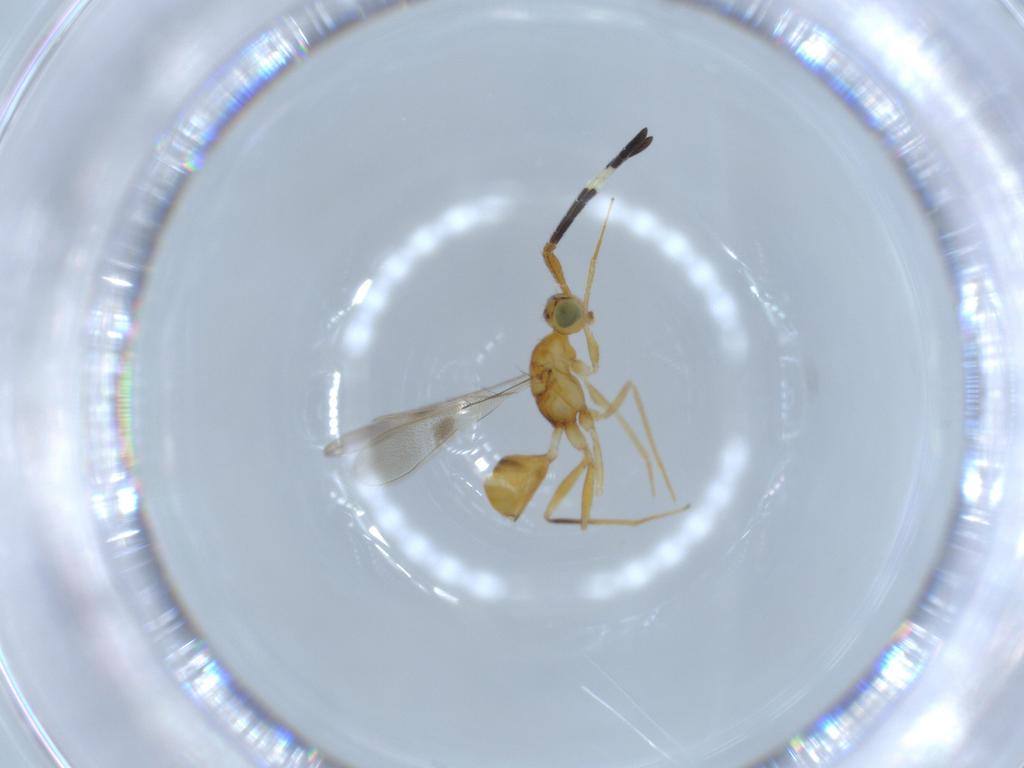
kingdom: Animalia
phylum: Arthropoda
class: Insecta
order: Hymenoptera
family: Mymaridae
